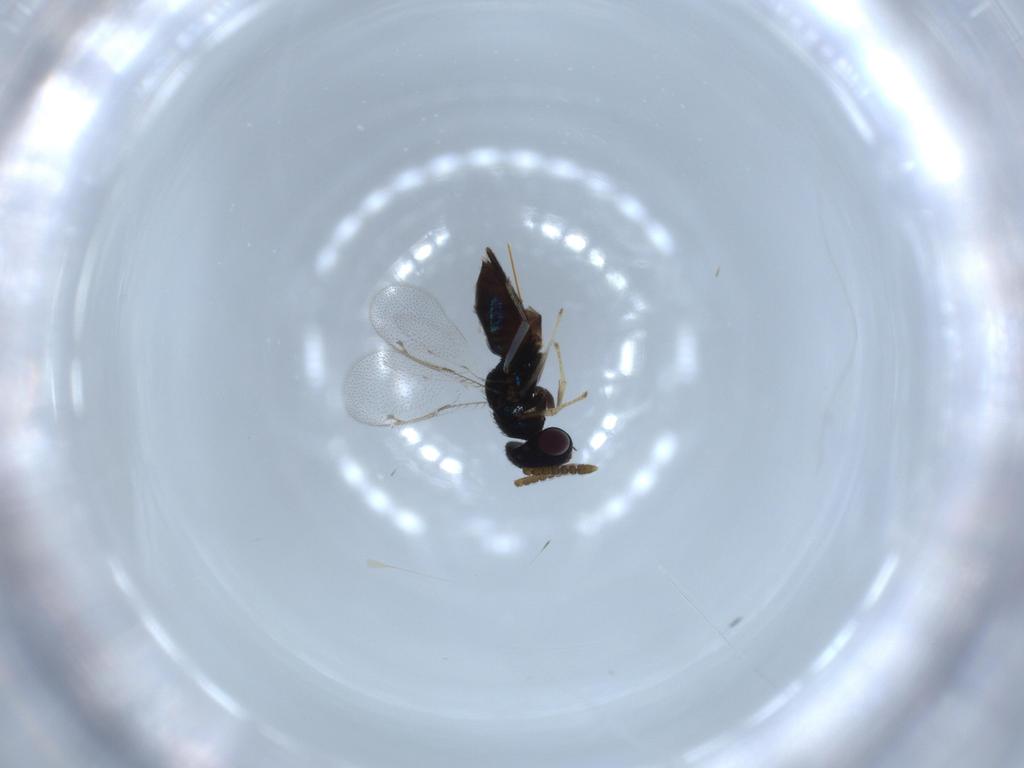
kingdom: Animalia
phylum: Arthropoda
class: Insecta
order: Hymenoptera
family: Pirenidae
